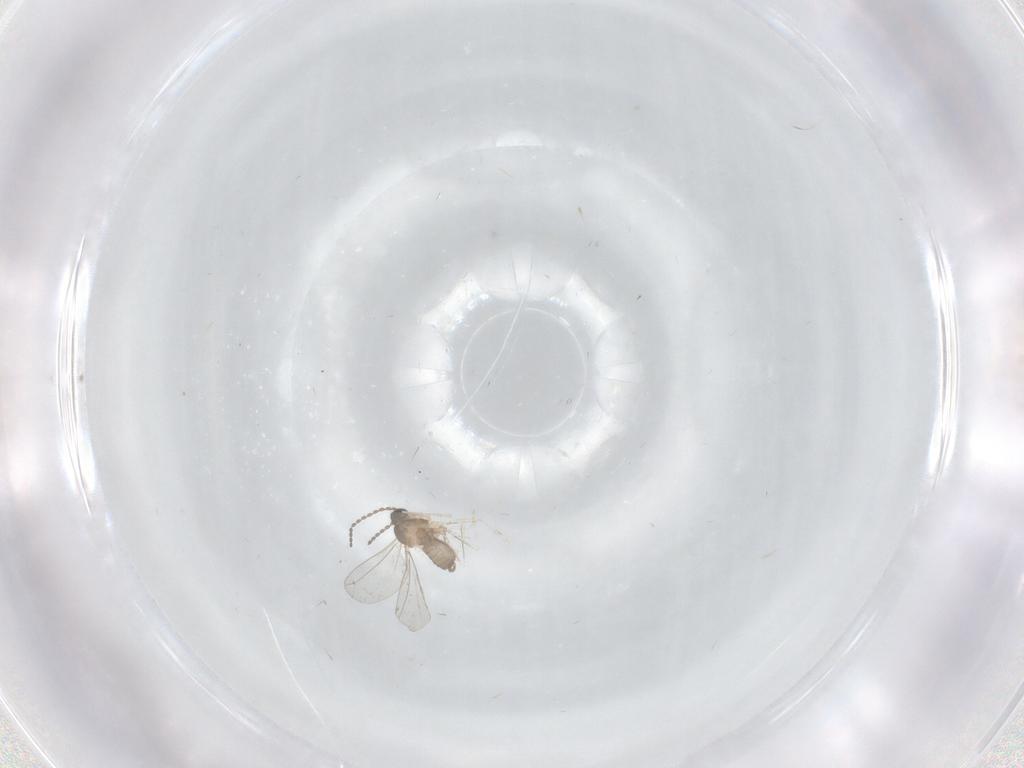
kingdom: Animalia
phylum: Arthropoda
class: Insecta
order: Diptera
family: Cecidomyiidae
